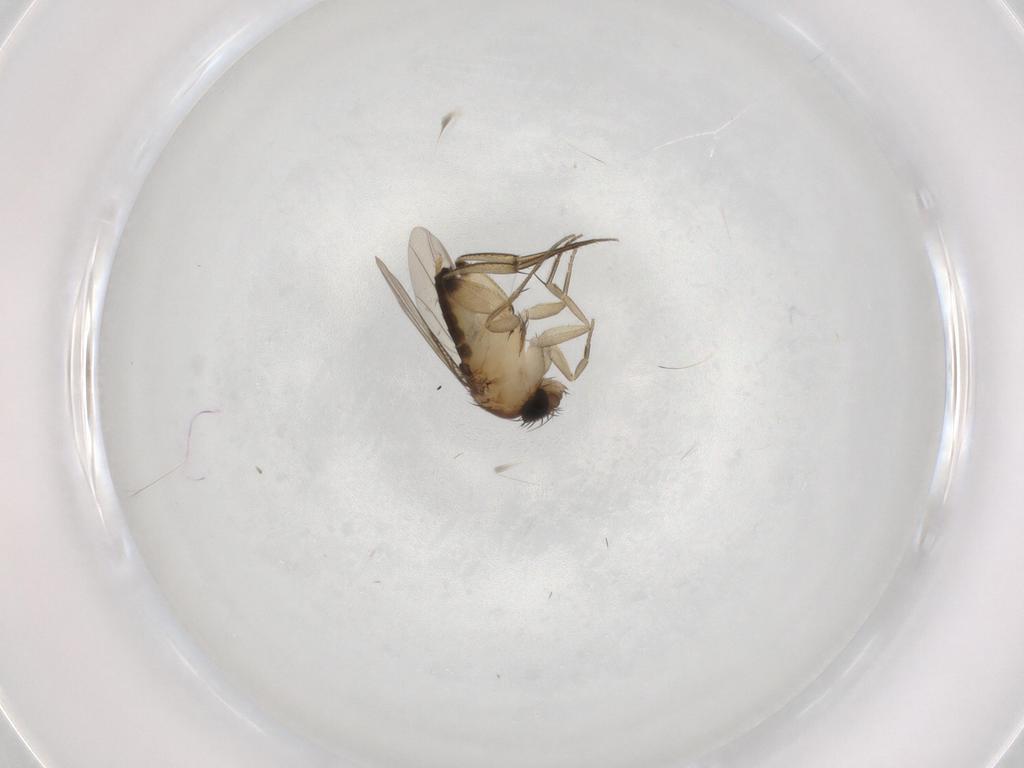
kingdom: Animalia
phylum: Arthropoda
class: Insecta
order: Diptera
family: Phoridae
